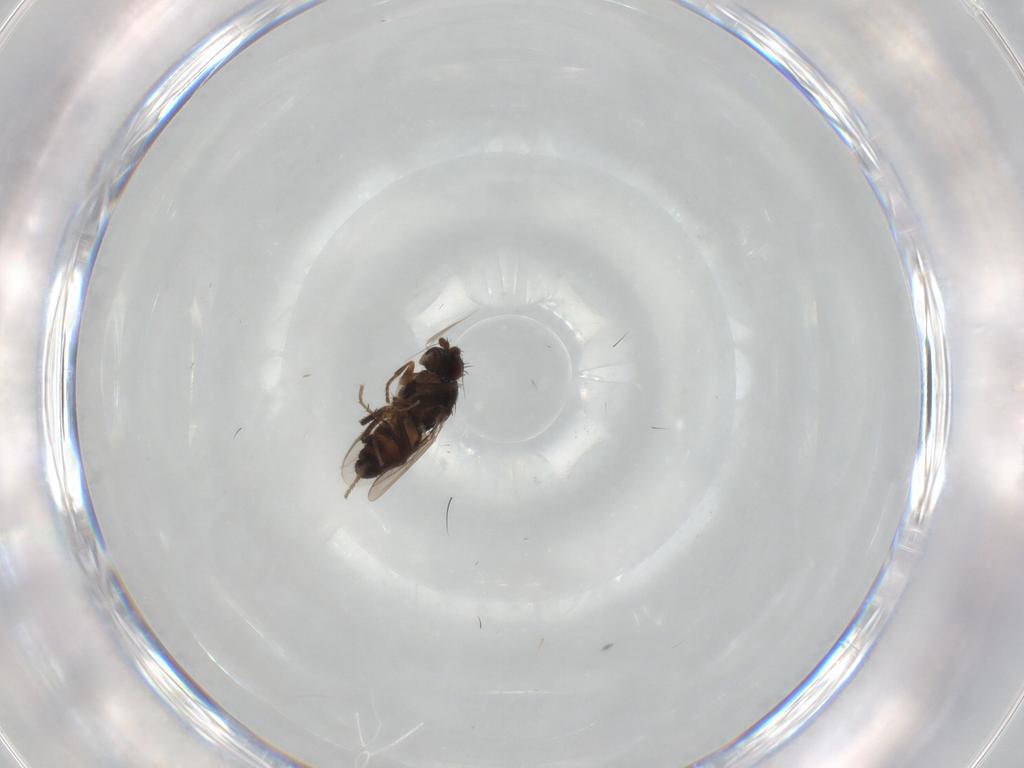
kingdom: Animalia
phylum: Arthropoda
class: Insecta
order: Diptera
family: Sphaeroceridae
